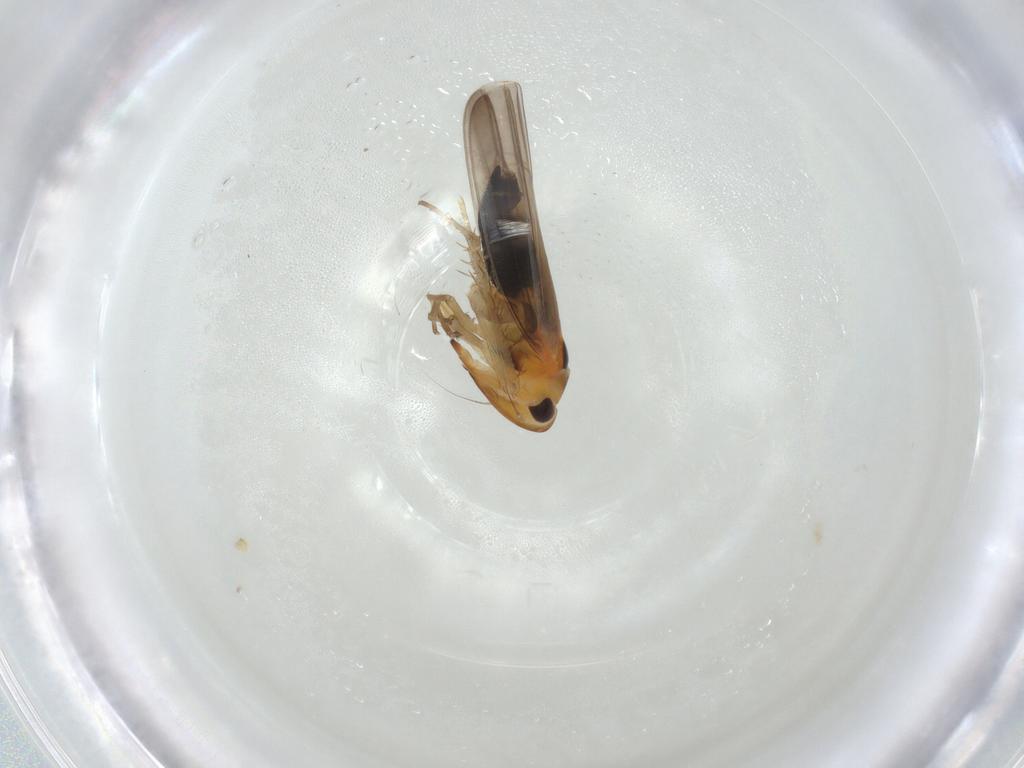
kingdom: Animalia
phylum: Arthropoda
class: Insecta
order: Hemiptera
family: Cicadellidae
